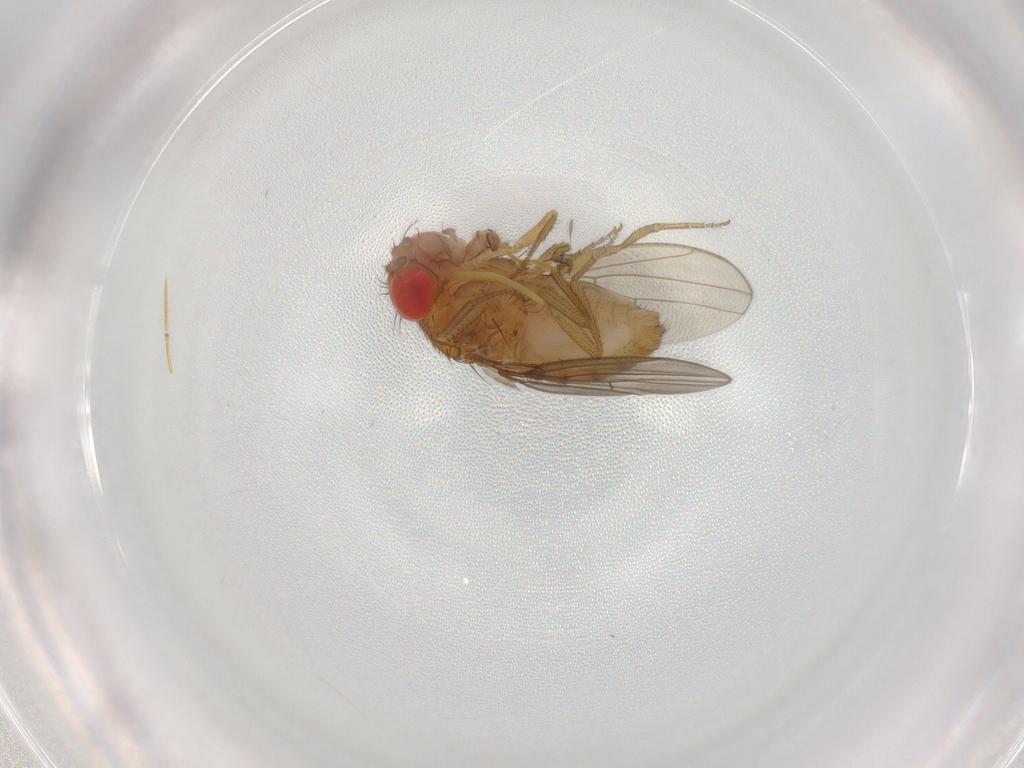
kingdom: Animalia
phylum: Arthropoda
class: Insecta
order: Diptera
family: Drosophilidae
